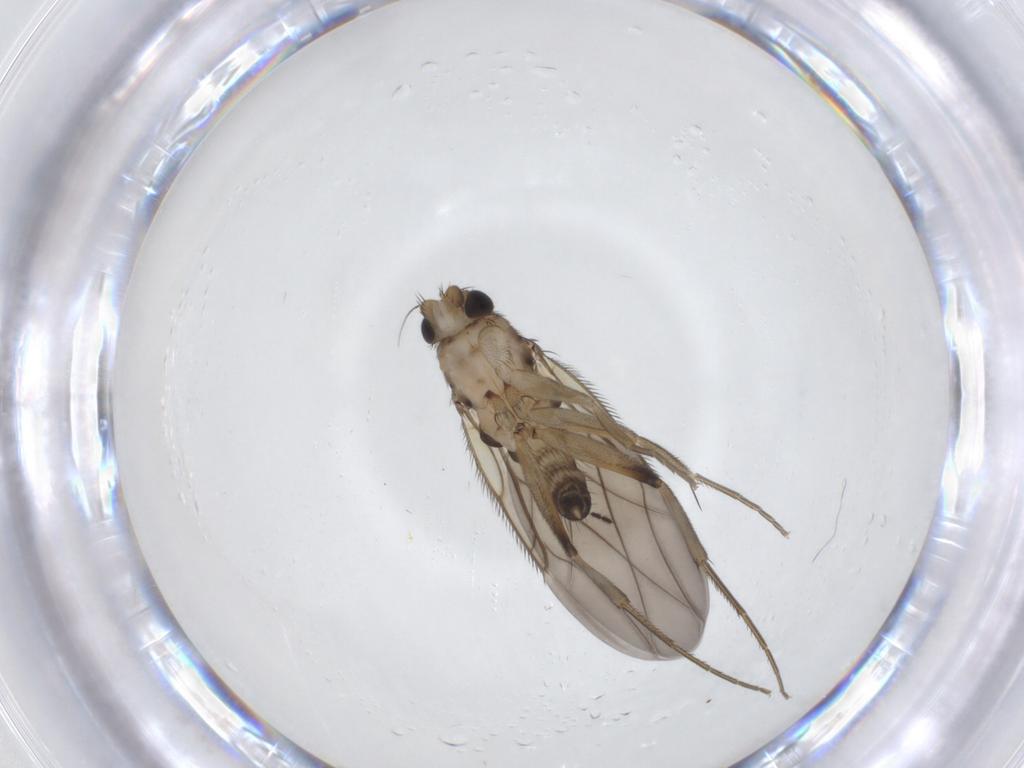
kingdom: Animalia
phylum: Arthropoda
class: Insecta
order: Diptera
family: Phoridae
